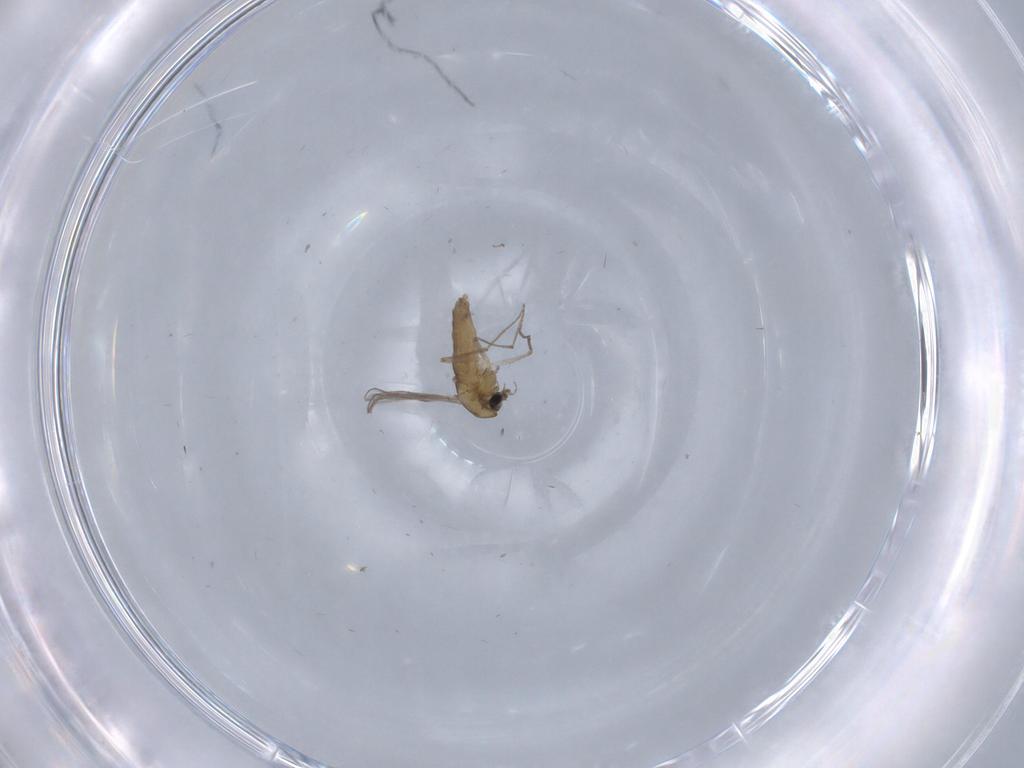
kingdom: Animalia
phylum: Arthropoda
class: Insecta
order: Diptera
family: Chironomidae
